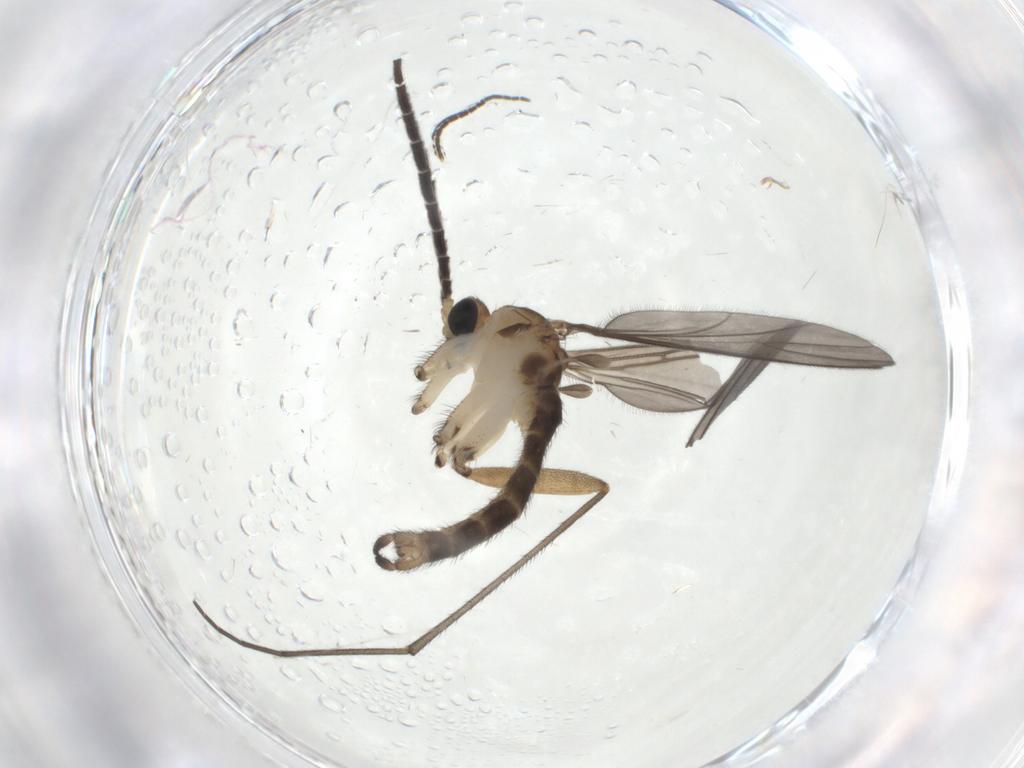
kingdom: Animalia
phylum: Arthropoda
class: Insecta
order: Diptera
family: Sciaridae
